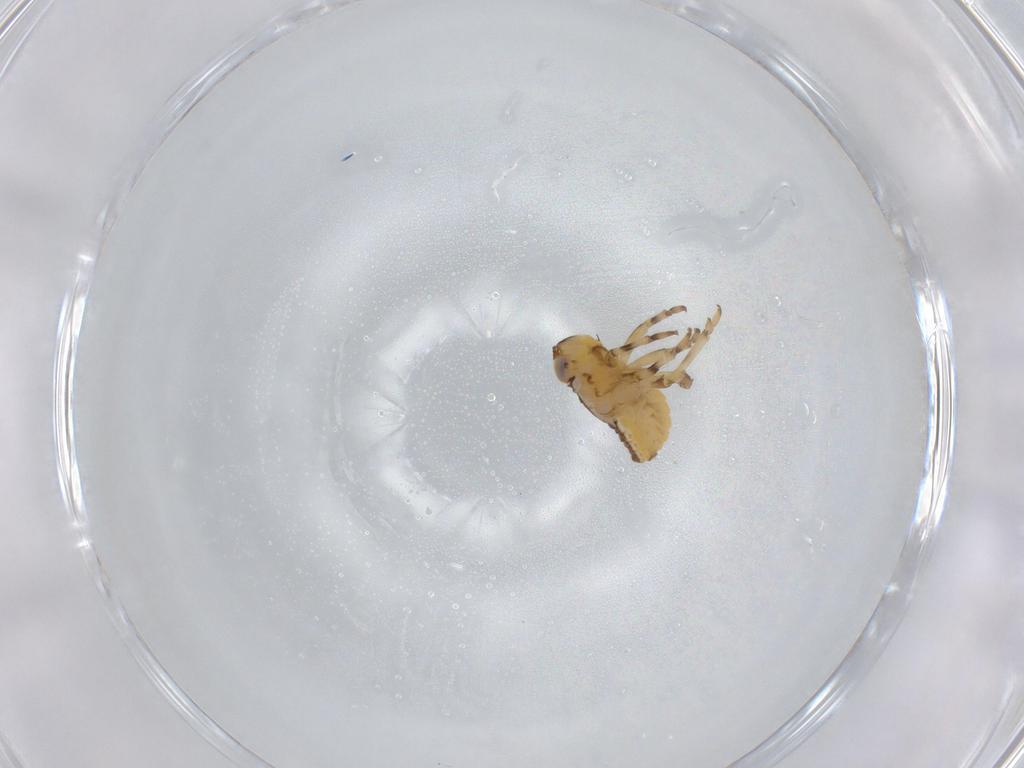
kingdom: Animalia
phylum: Arthropoda
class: Insecta
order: Hemiptera
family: Issidae
